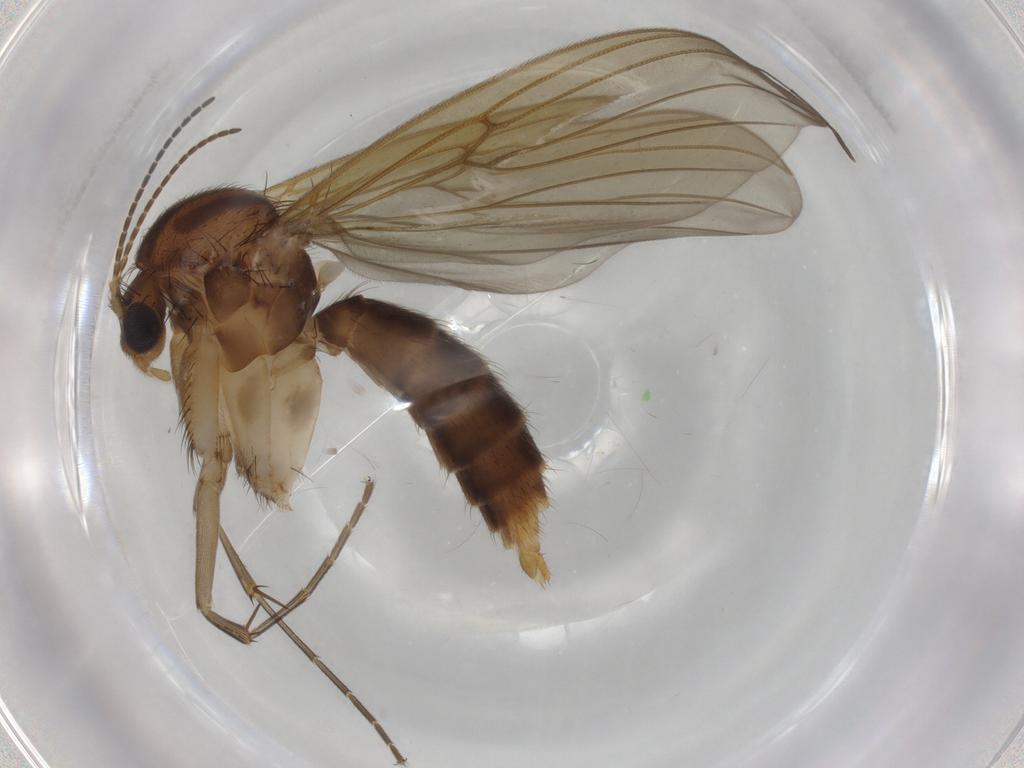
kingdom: Animalia
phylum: Arthropoda
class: Insecta
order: Diptera
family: Mycetophilidae
